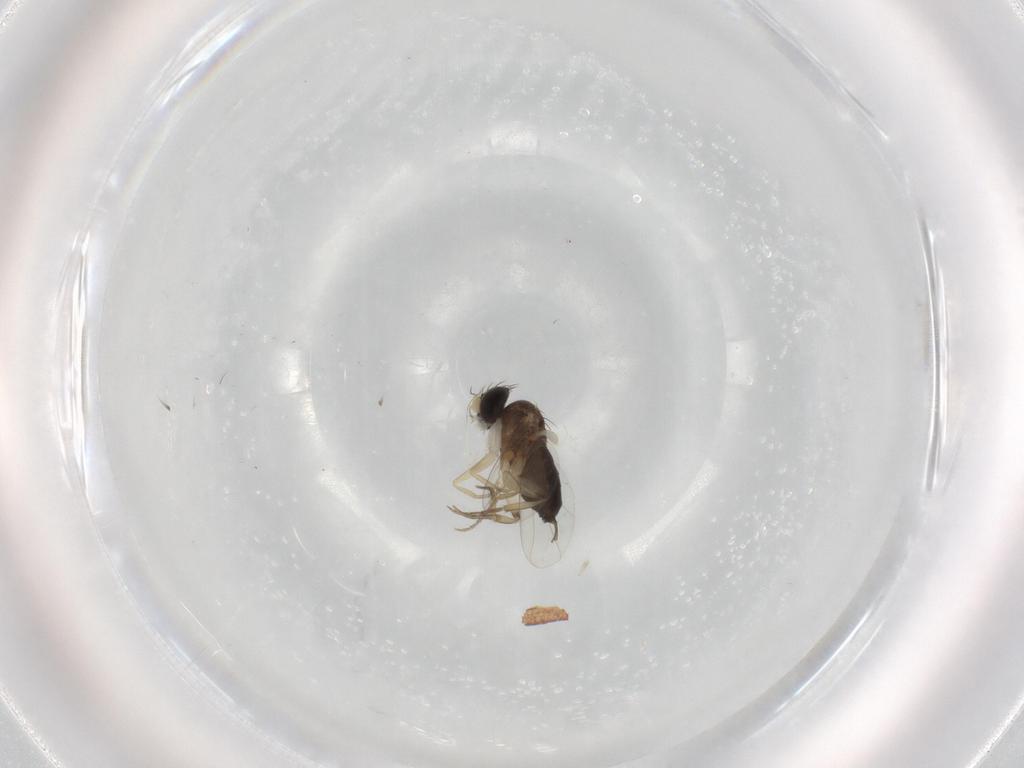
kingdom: Animalia
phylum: Arthropoda
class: Insecta
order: Diptera
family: Phoridae
